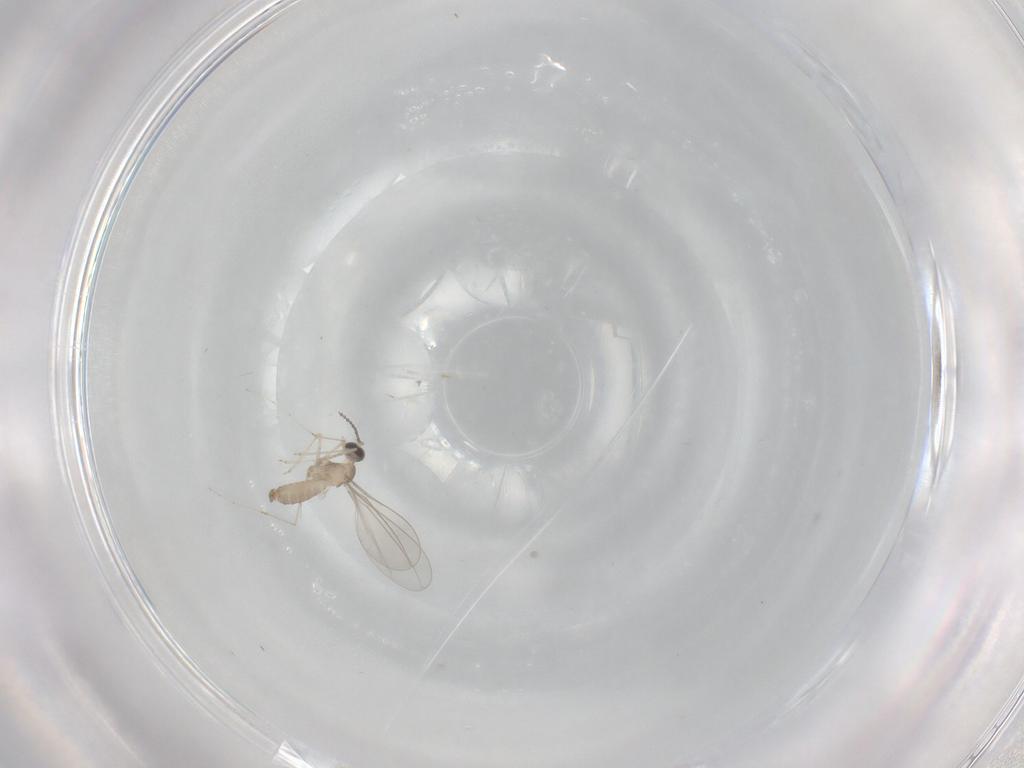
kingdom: Animalia
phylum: Arthropoda
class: Insecta
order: Diptera
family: Cecidomyiidae
